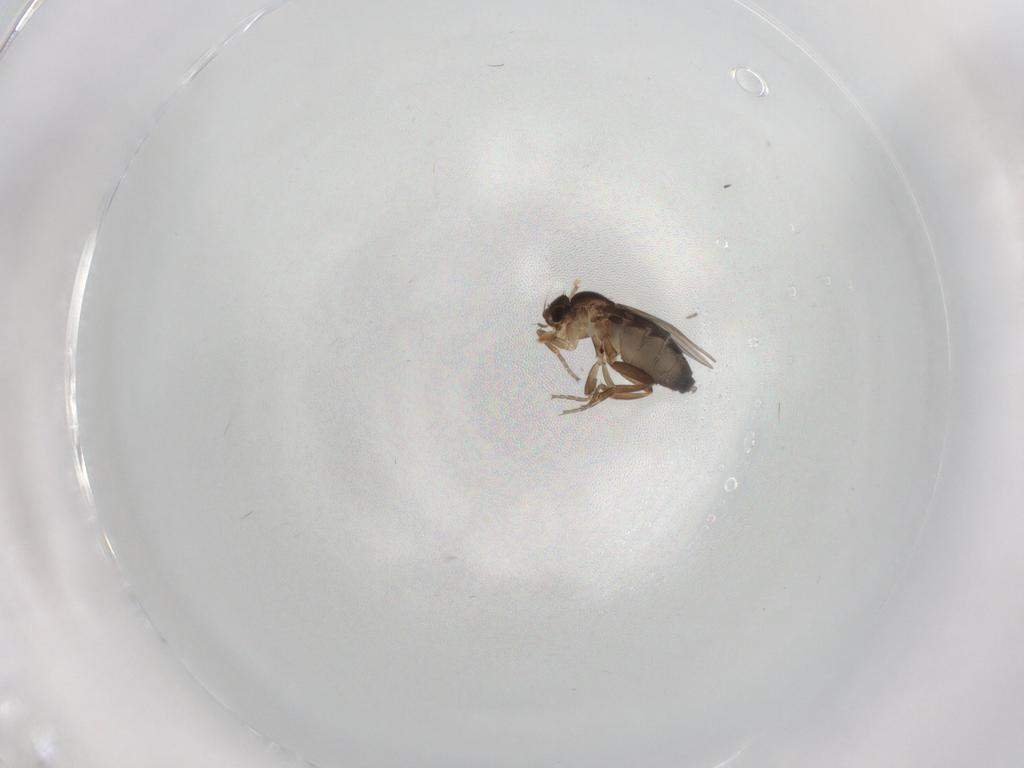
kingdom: Animalia
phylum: Arthropoda
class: Insecta
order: Diptera
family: Phoridae
